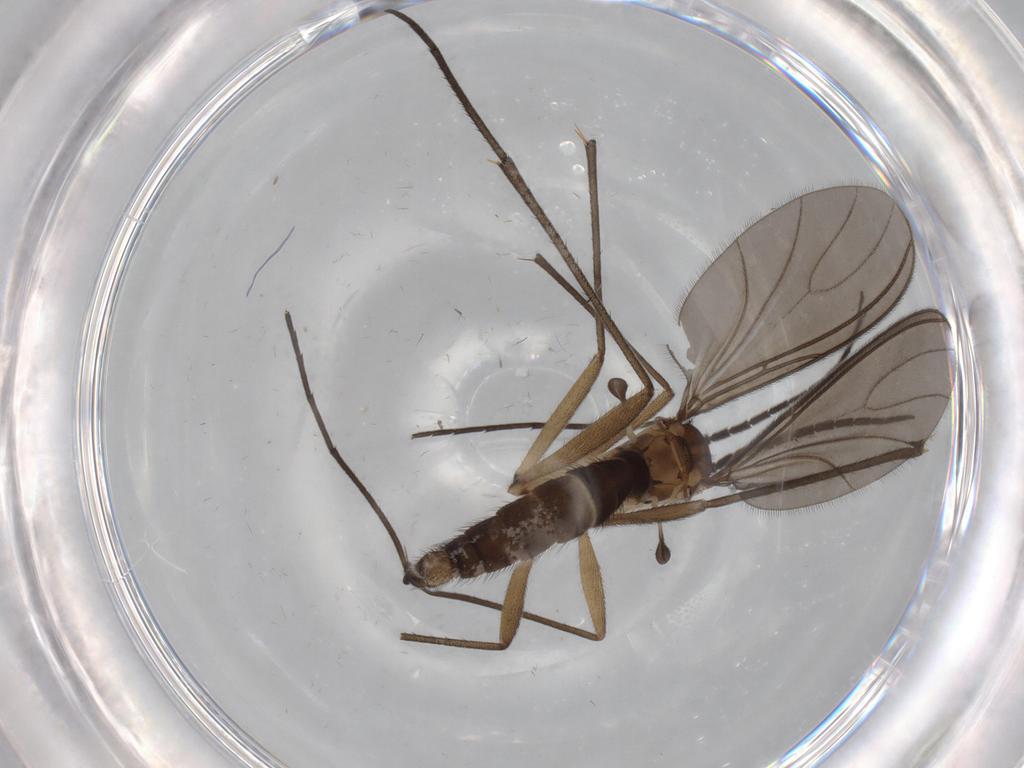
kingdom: Animalia
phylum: Arthropoda
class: Insecta
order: Diptera
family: Sciaridae
